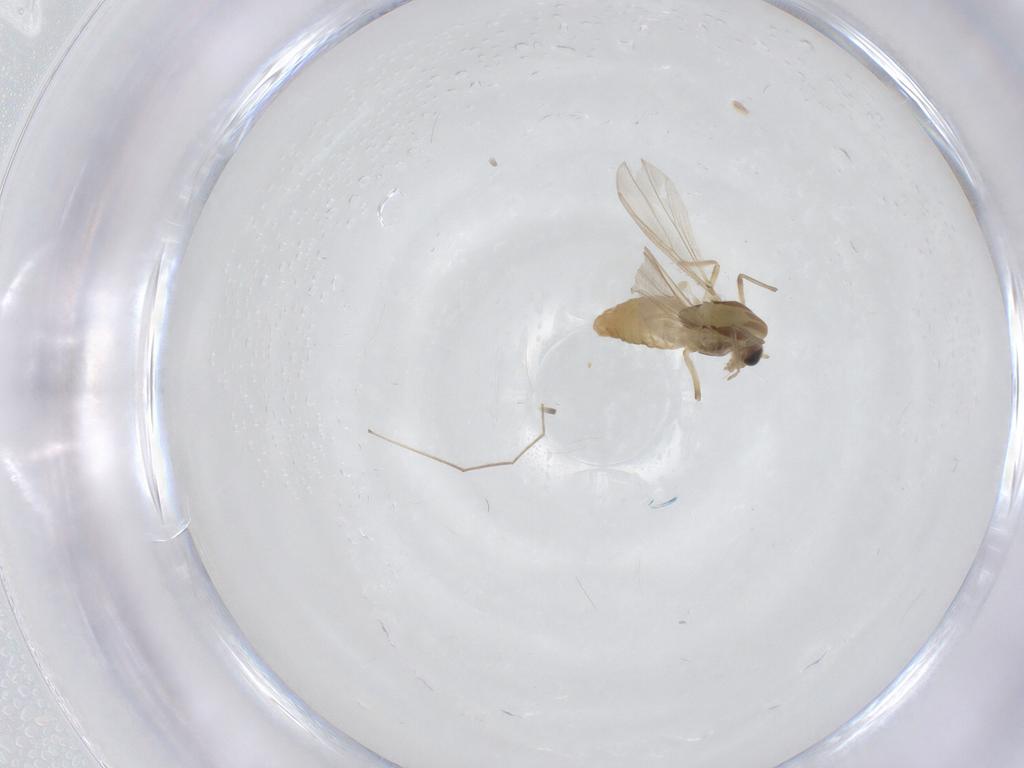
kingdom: Animalia
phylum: Arthropoda
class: Insecta
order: Diptera
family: Chironomidae
